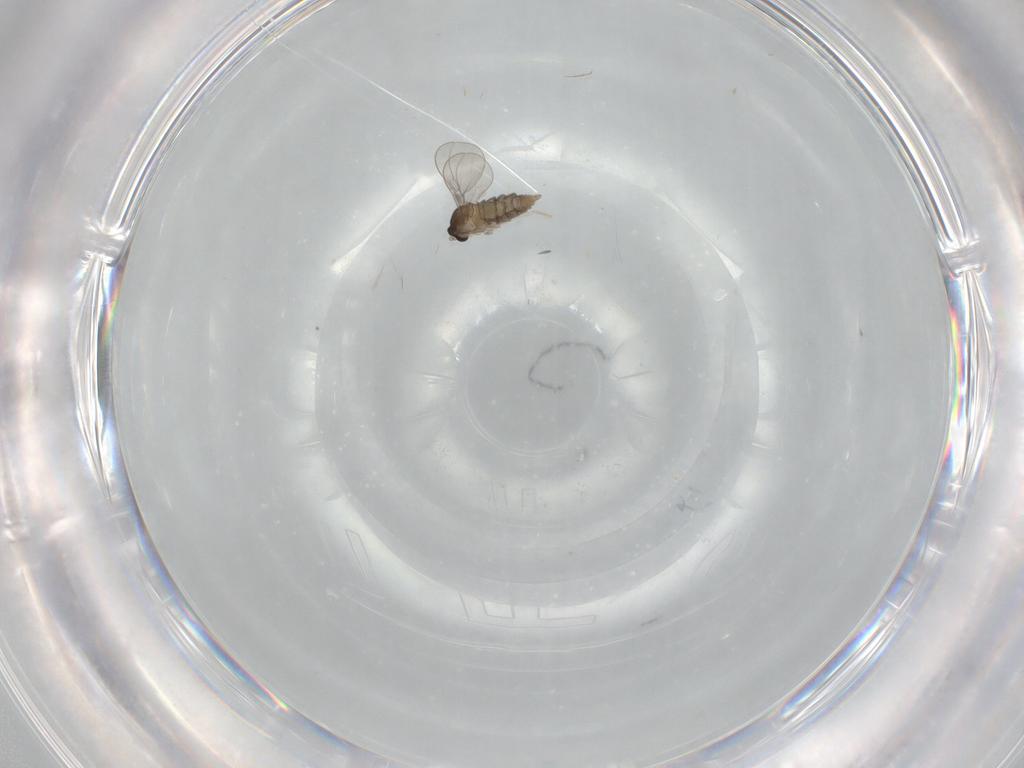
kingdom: Animalia
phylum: Arthropoda
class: Insecta
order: Diptera
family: Cecidomyiidae
